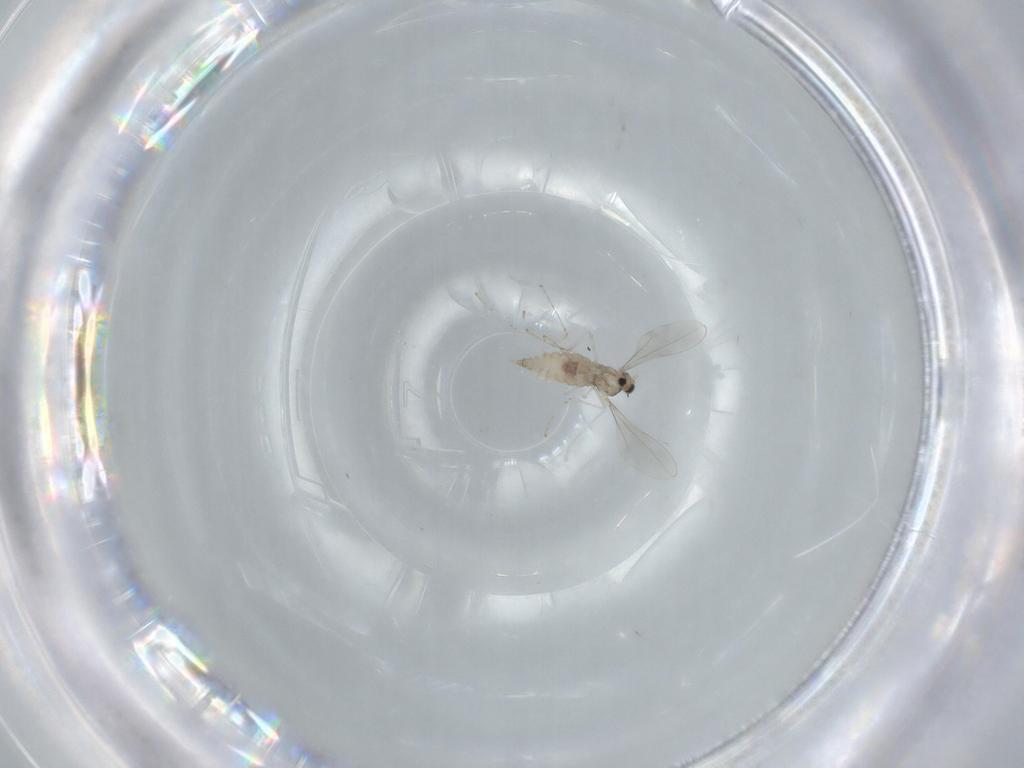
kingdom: Animalia
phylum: Arthropoda
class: Insecta
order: Diptera
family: Cecidomyiidae
